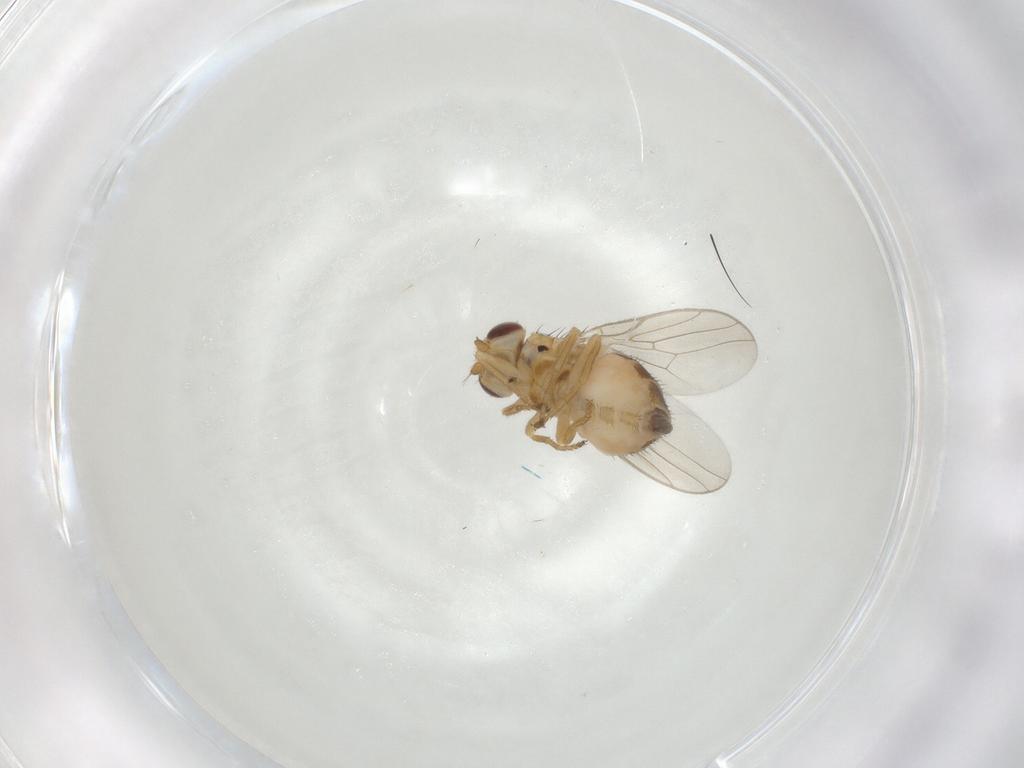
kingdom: Animalia
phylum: Arthropoda
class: Insecta
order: Diptera
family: Chloropidae
